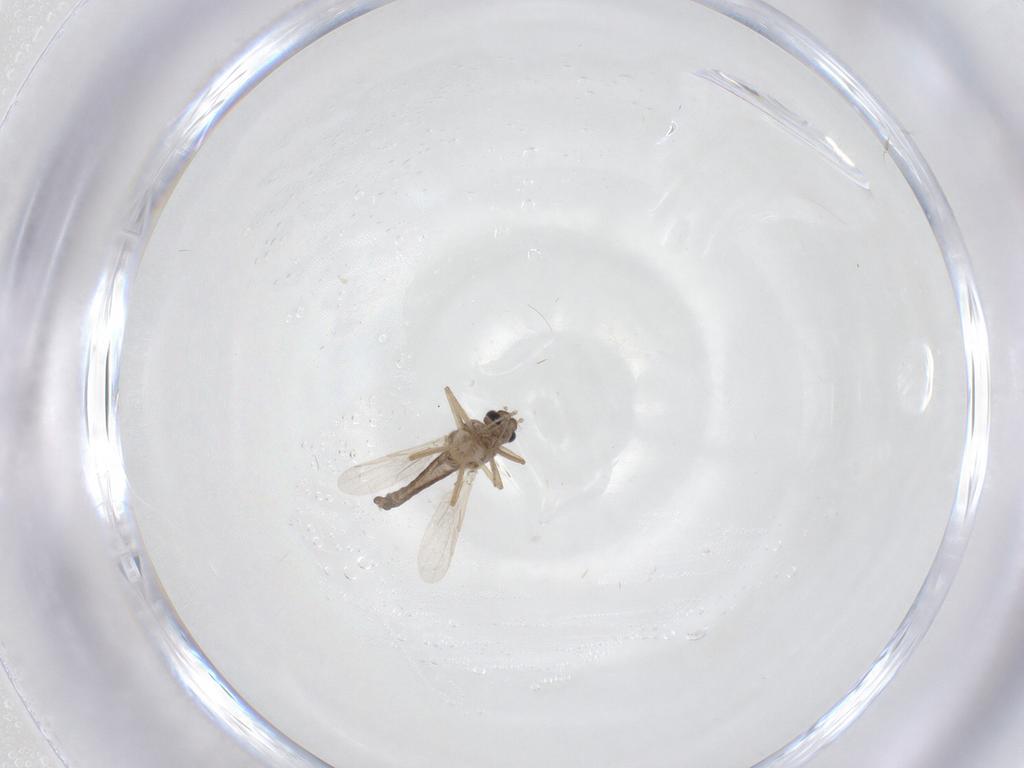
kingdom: Animalia
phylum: Arthropoda
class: Insecta
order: Diptera
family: Ceratopogonidae
